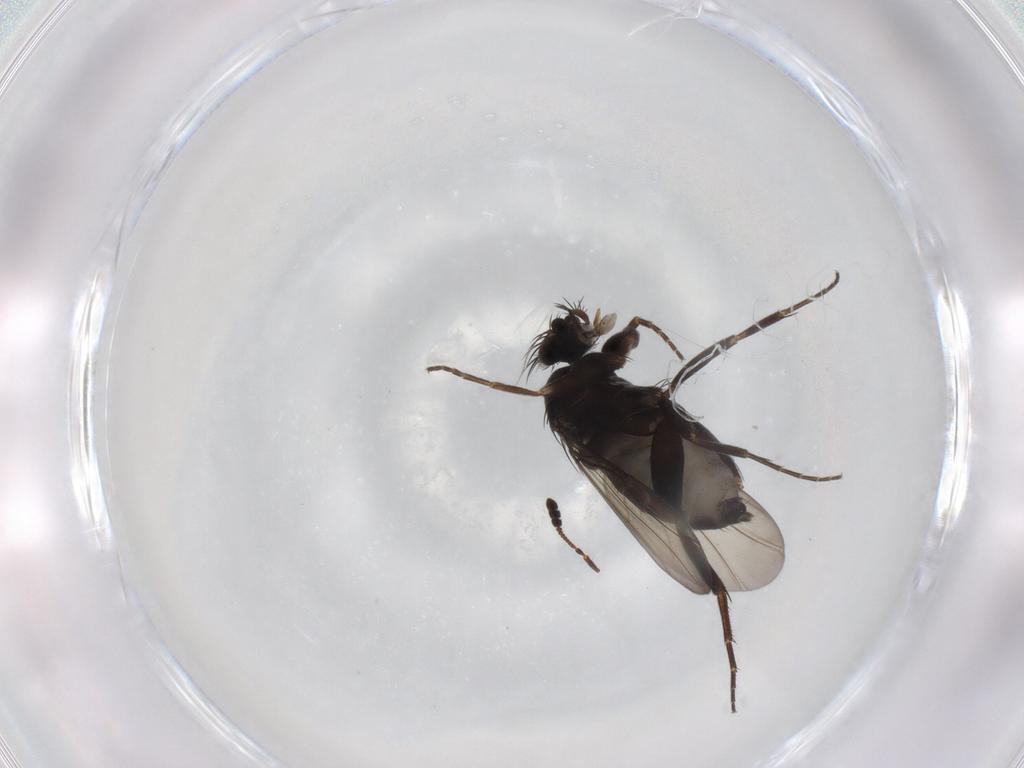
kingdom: Animalia
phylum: Arthropoda
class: Insecta
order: Diptera
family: Phoridae
